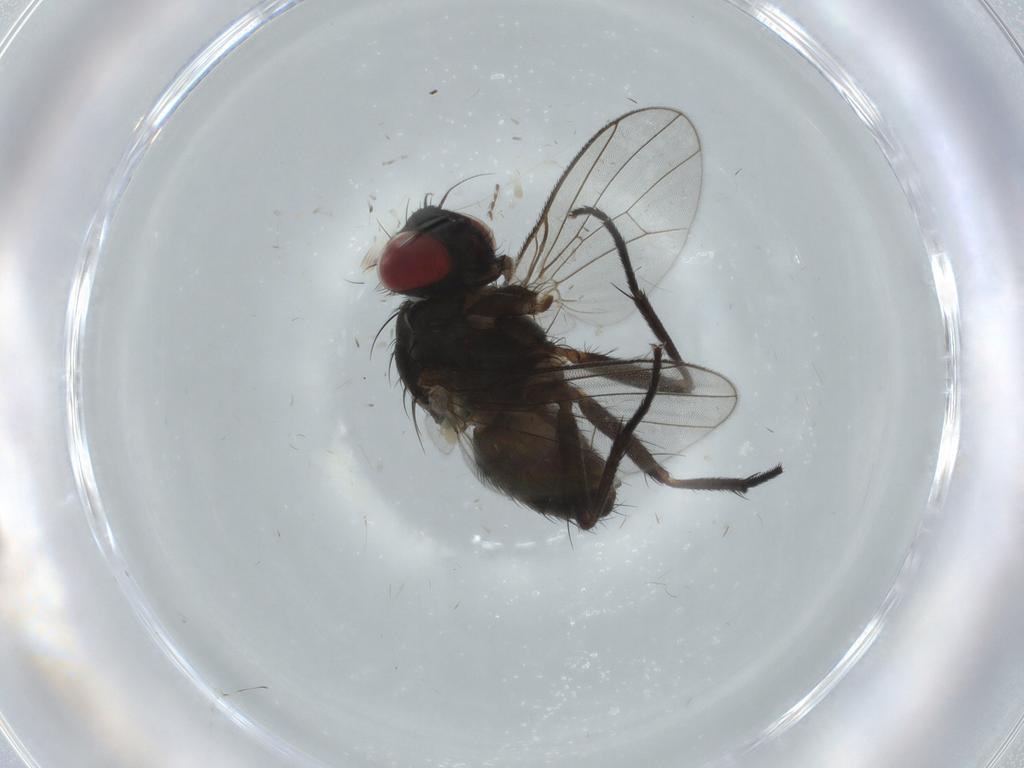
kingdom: Animalia
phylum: Arthropoda
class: Insecta
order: Diptera
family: Muscidae
